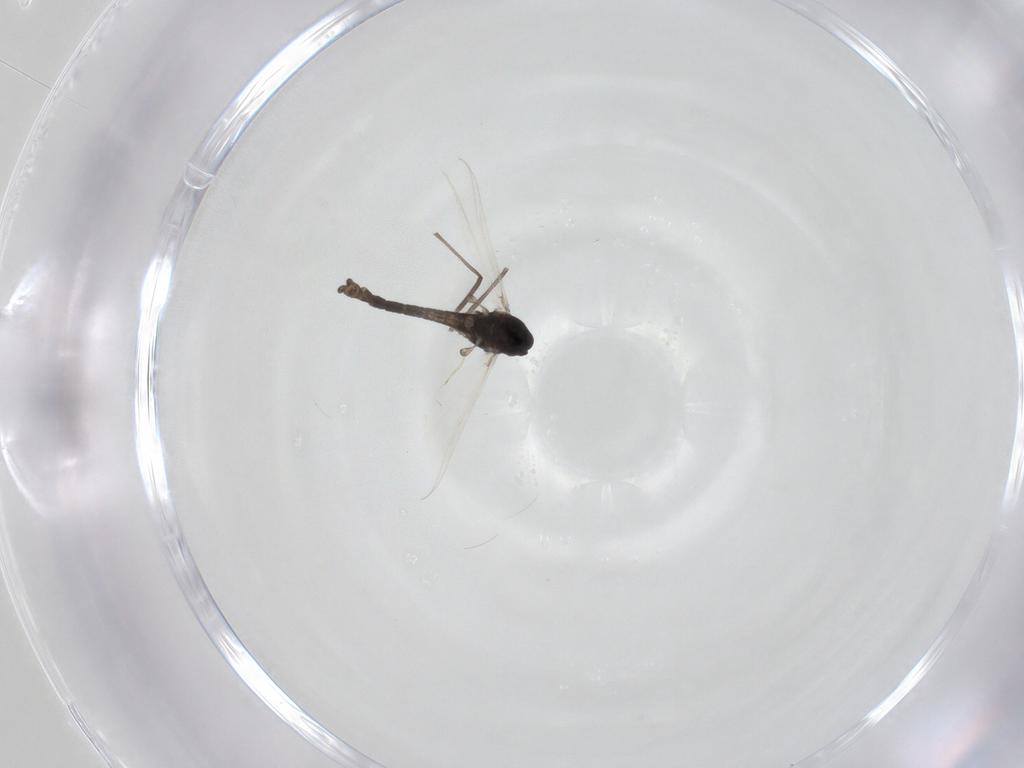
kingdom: Animalia
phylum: Arthropoda
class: Insecta
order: Diptera
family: Chironomidae
